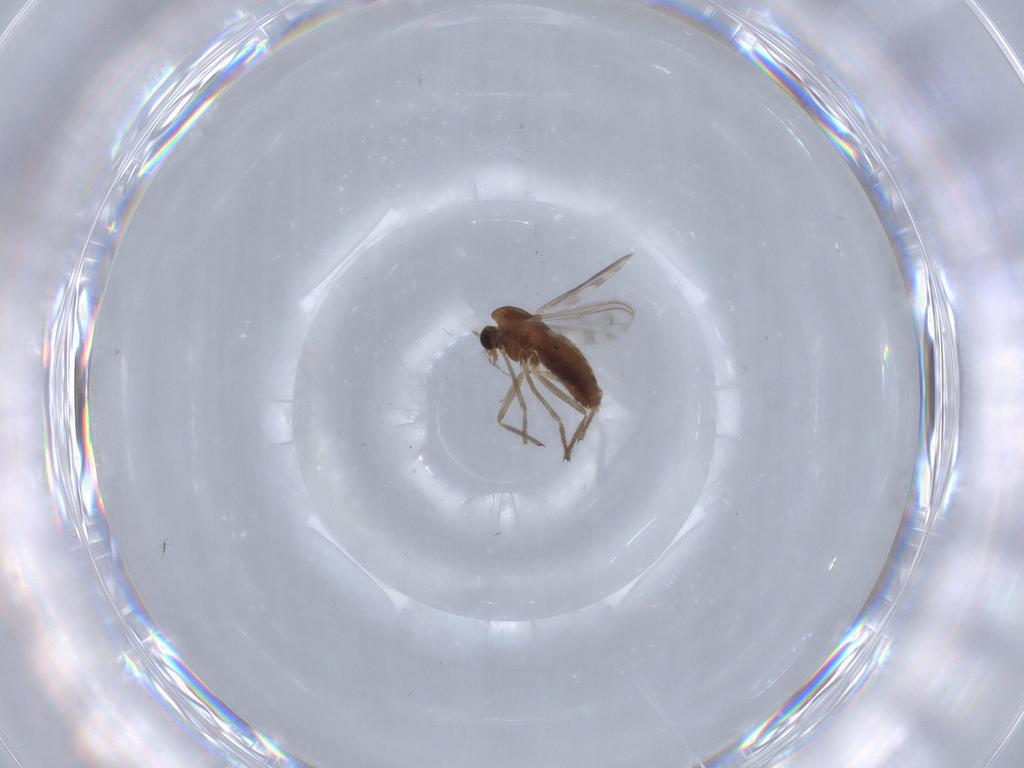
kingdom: Animalia
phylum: Arthropoda
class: Insecta
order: Diptera
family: Chironomidae
